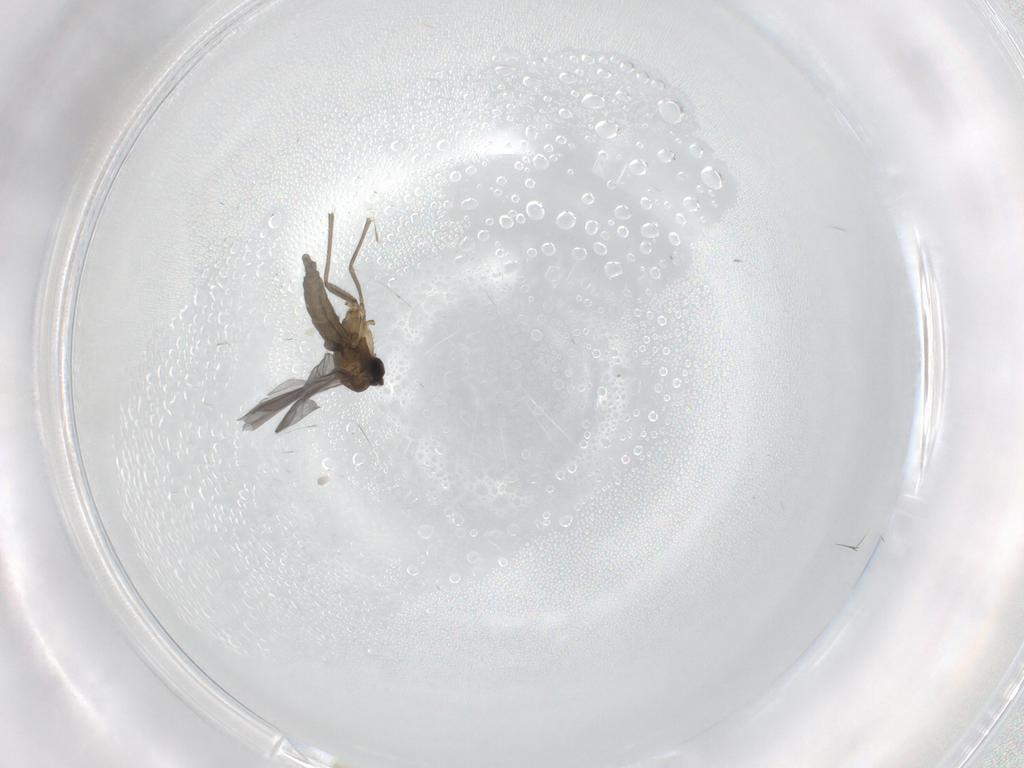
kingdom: Animalia
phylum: Arthropoda
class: Insecta
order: Diptera
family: Sciaridae
